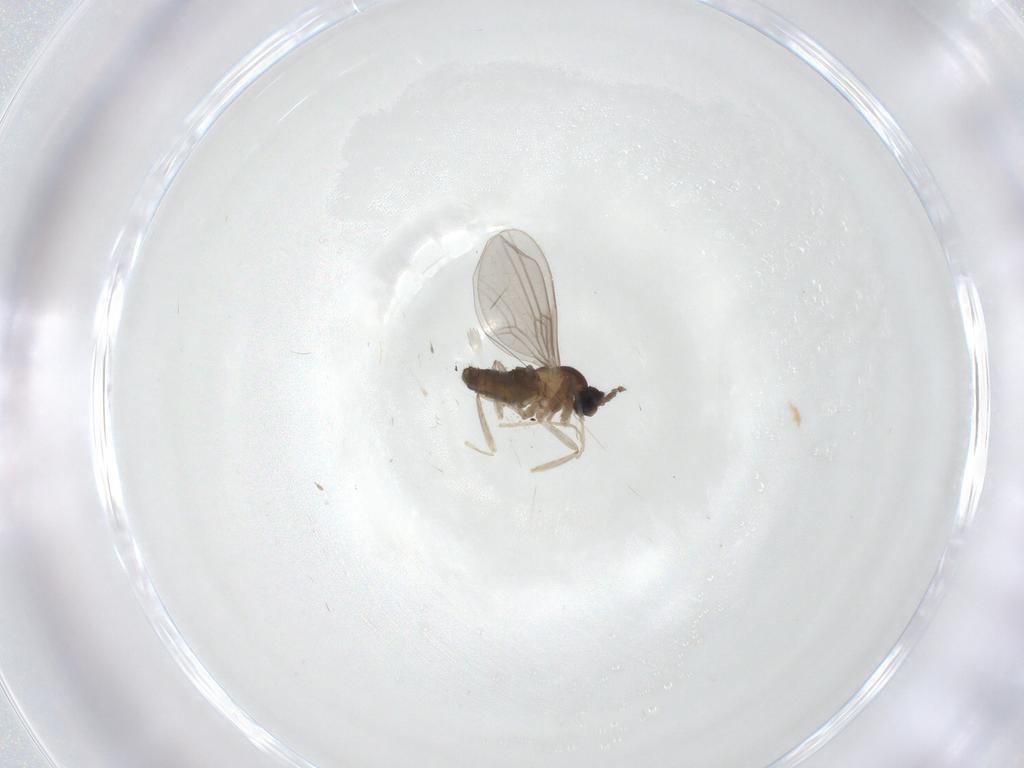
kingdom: Animalia
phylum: Arthropoda
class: Insecta
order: Diptera
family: Cecidomyiidae
